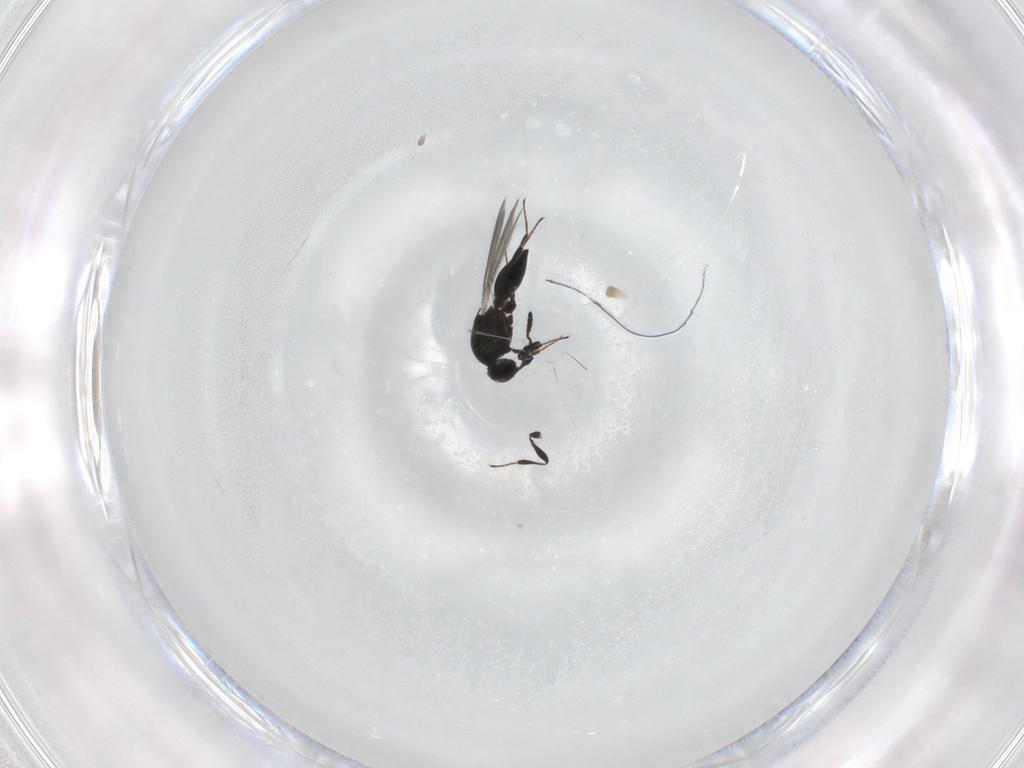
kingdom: Animalia
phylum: Arthropoda
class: Insecta
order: Hymenoptera
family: Platygastridae
